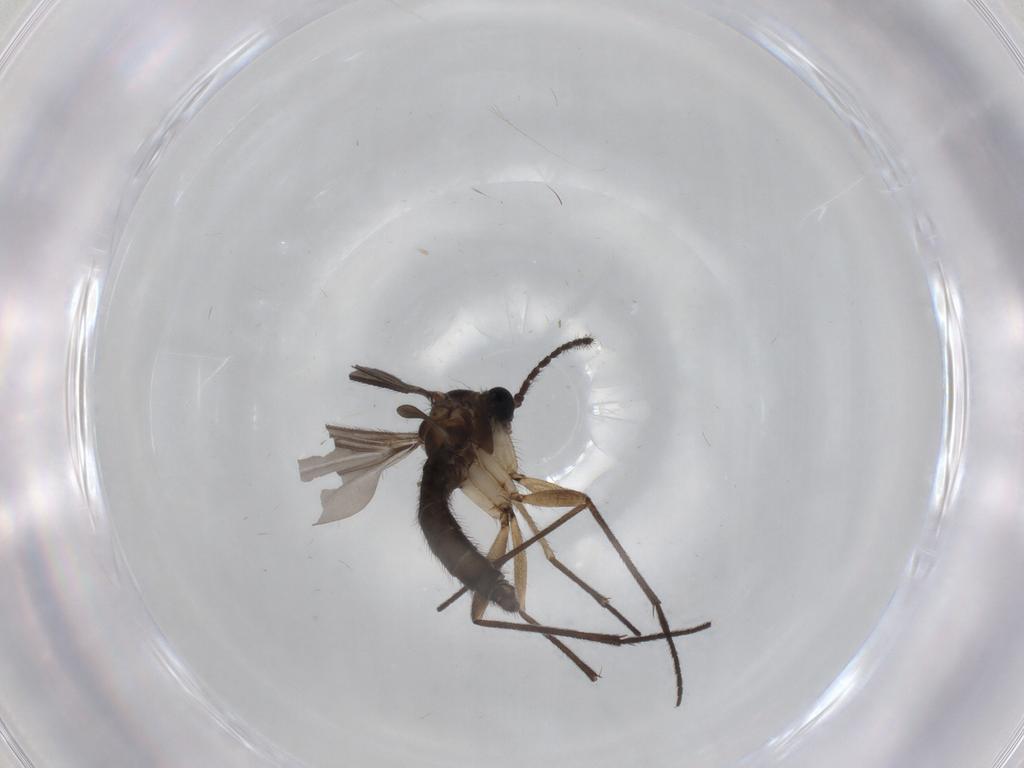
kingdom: Animalia
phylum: Arthropoda
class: Insecta
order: Diptera
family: Sciaridae
